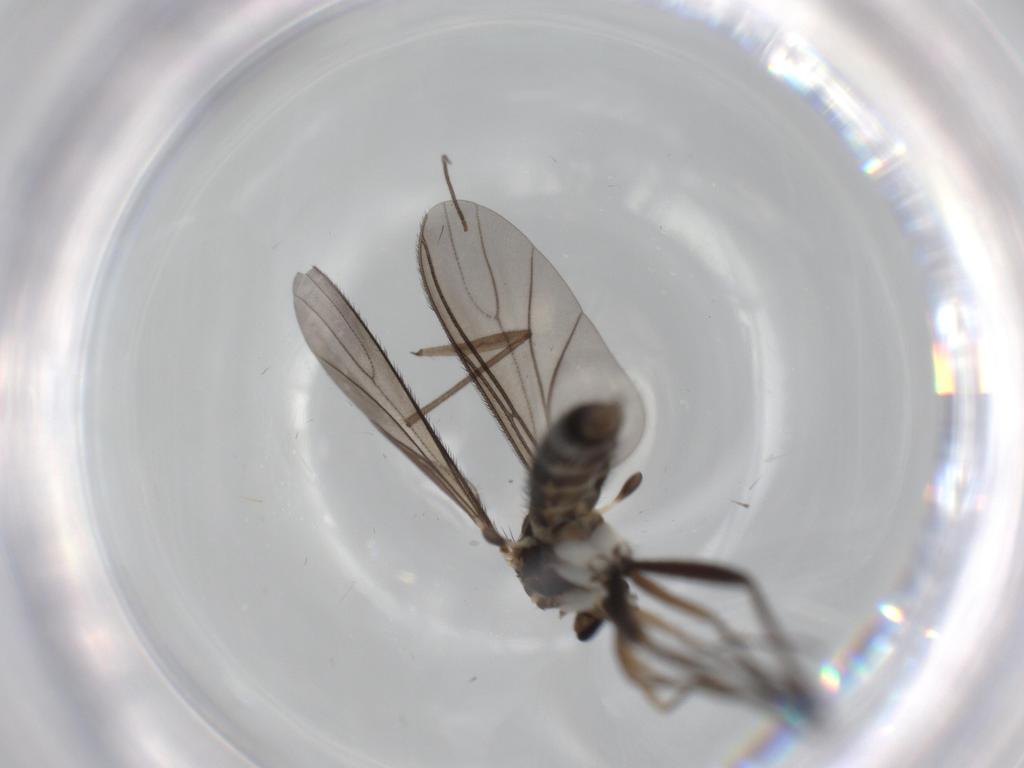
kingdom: Animalia
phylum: Arthropoda
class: Insecta
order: Diptera
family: Sciaridae
